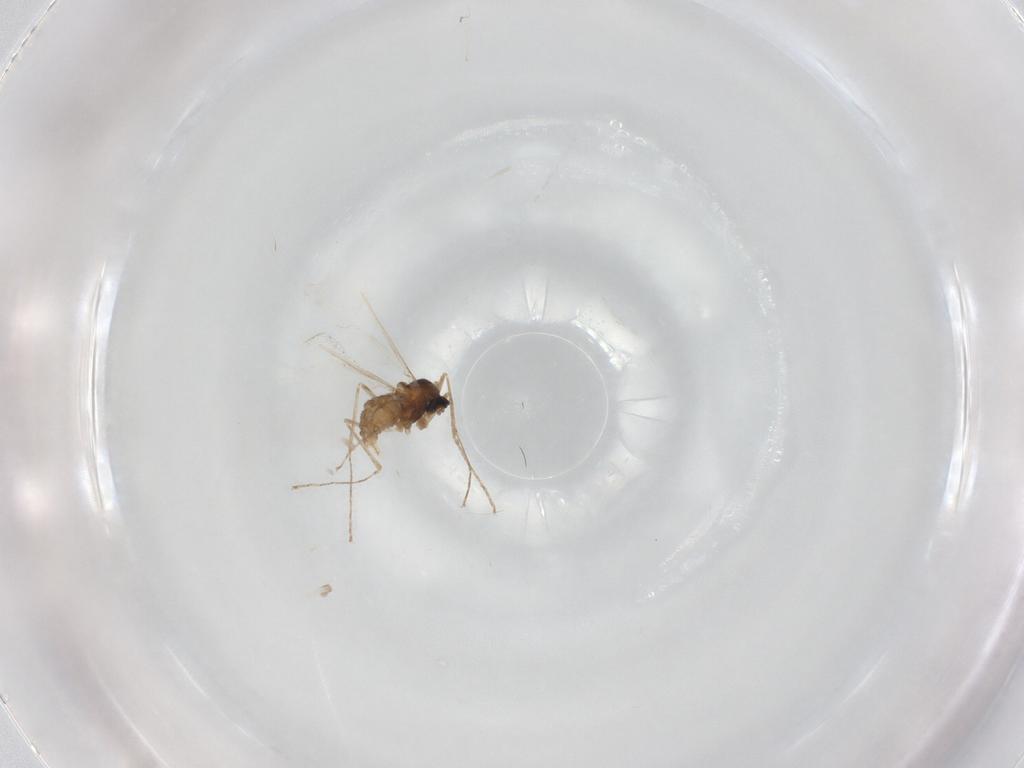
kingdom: Animalia
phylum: Arthropoda
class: Insecta
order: Diptera
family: Cecidomyiidae
